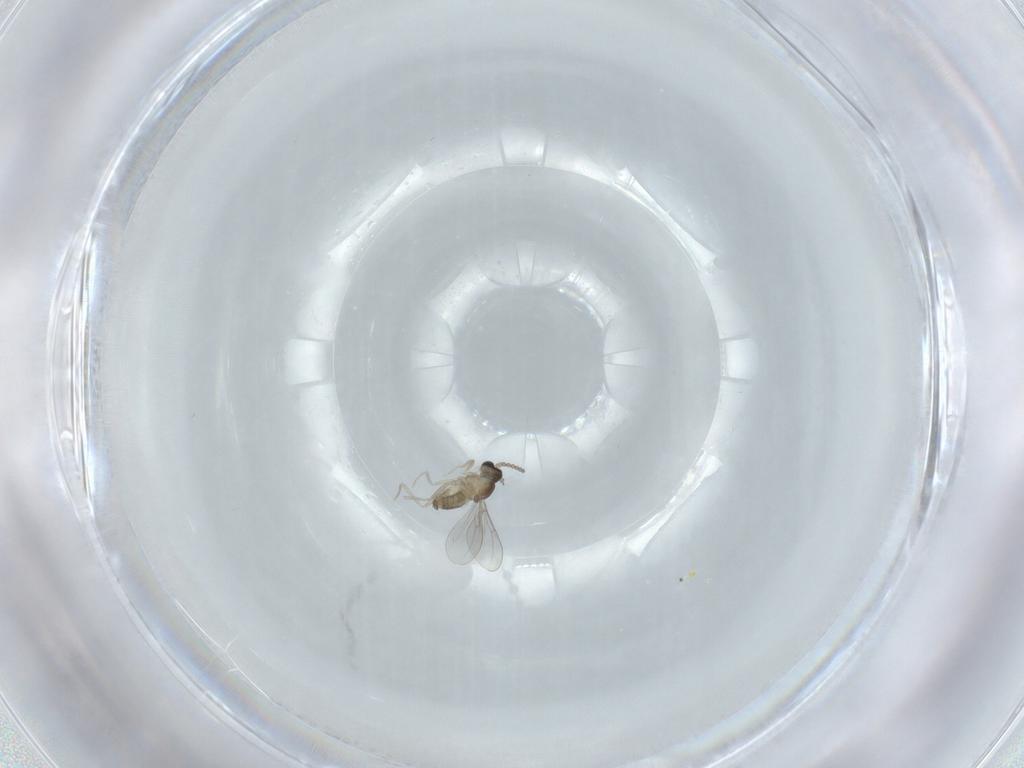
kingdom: Animalia
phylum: Arthropoda
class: Insecta
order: Diptera
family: Cecidomyiidae
